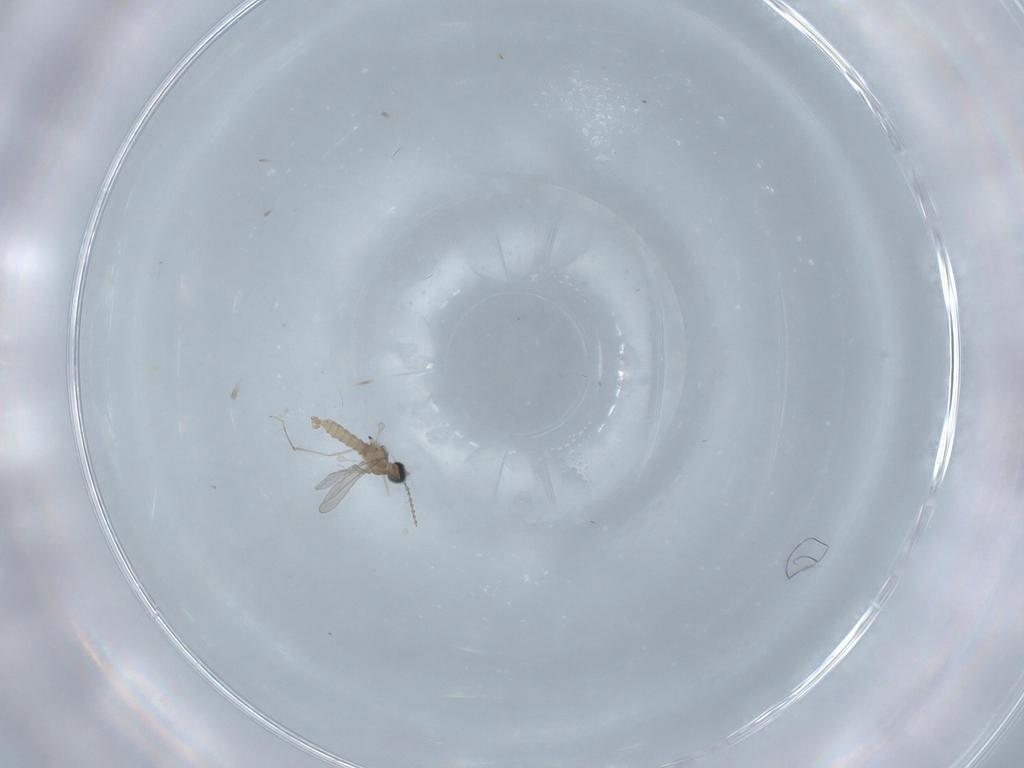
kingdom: Animalia
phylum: Arthropoda
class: Insecta
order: Diptera
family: Cecidomyiidae
